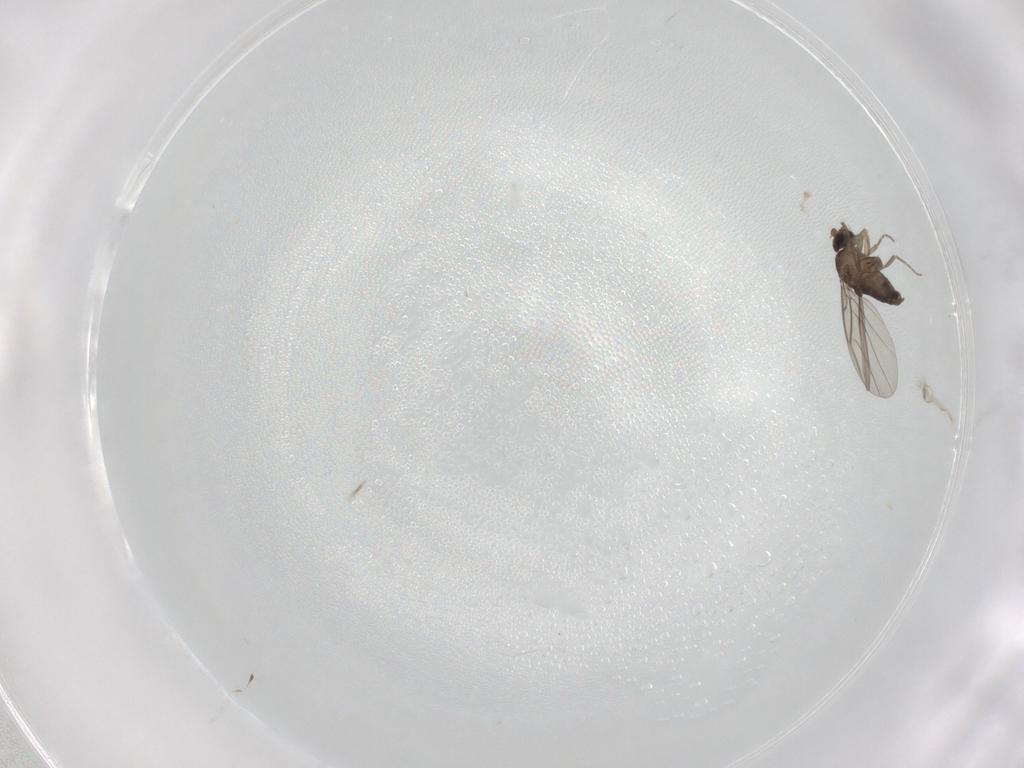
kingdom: Animalia
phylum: Arthropoda
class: Insecta
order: Diptera
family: Phoridae
